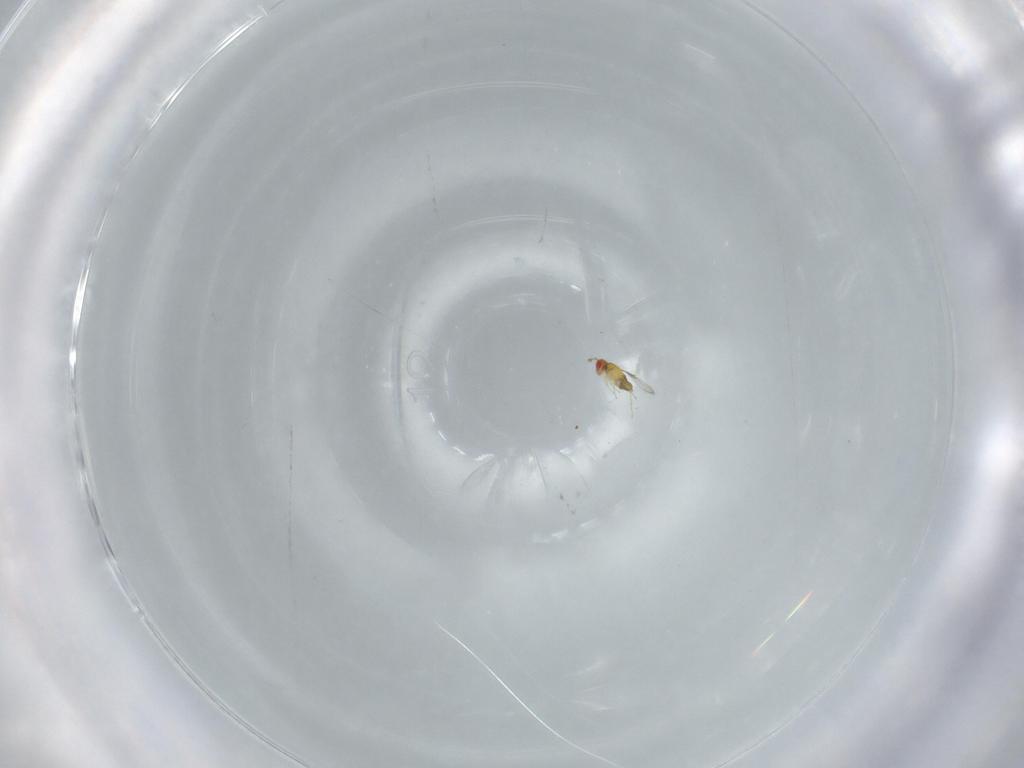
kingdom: Animalia
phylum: Arthropoda
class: Insecta
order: Hymenoptera
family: Trichogrammatidae
